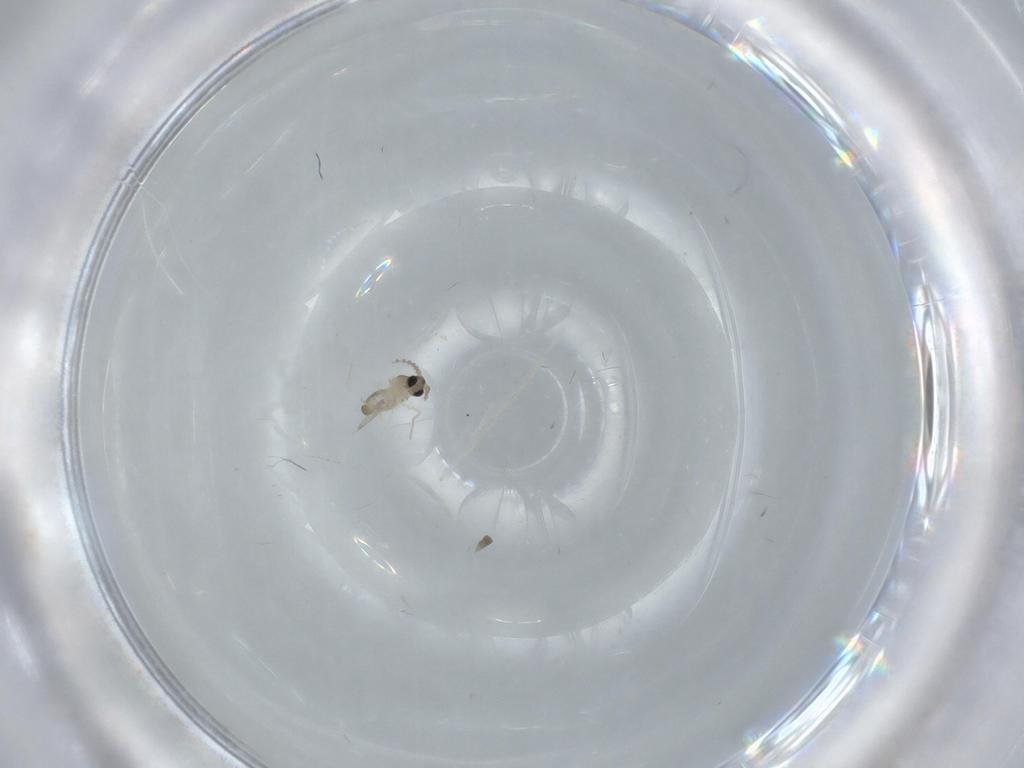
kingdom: Animalia
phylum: Arthropoda
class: Insecta
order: Diptera
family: Cecidomyiidae
